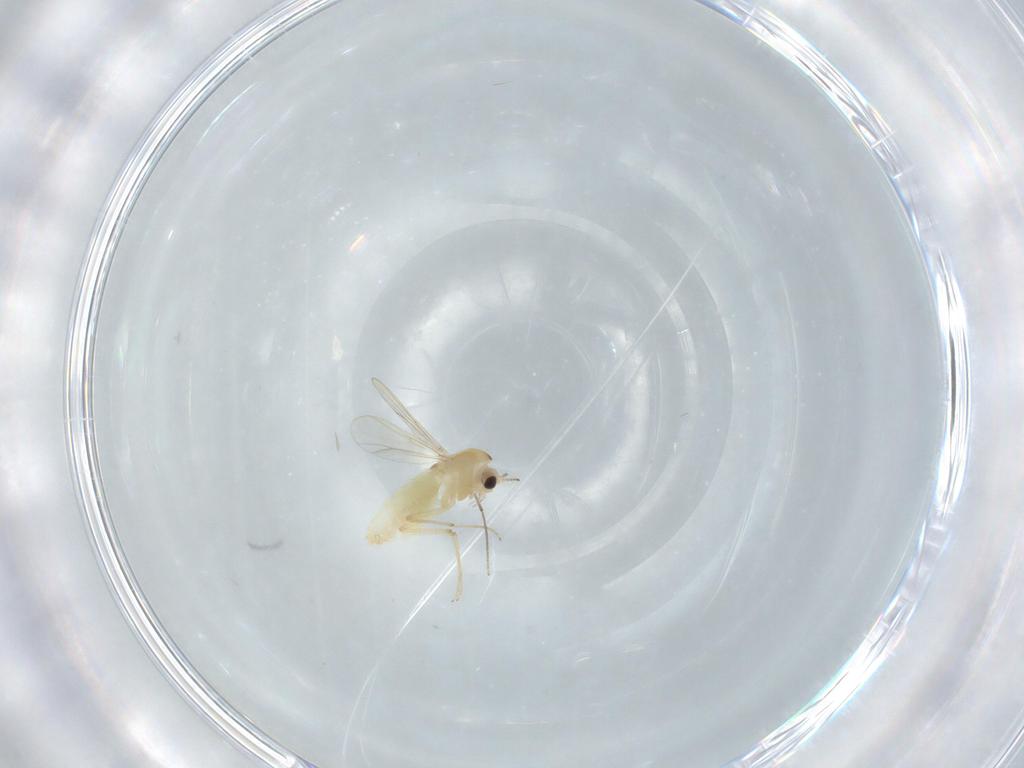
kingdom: Animalia
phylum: Arthropoda
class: Insecta
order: Diptera
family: Chironomidae
